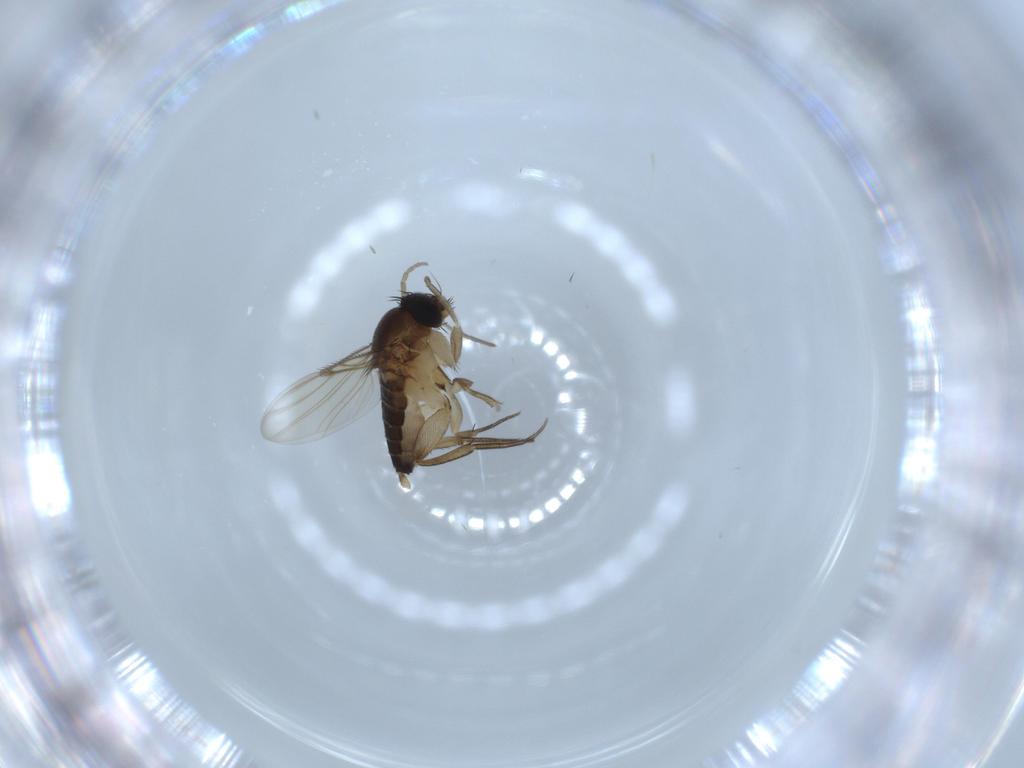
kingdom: Animalia
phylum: Arthropoda
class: Insecta
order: Diptera
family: Phoridae
